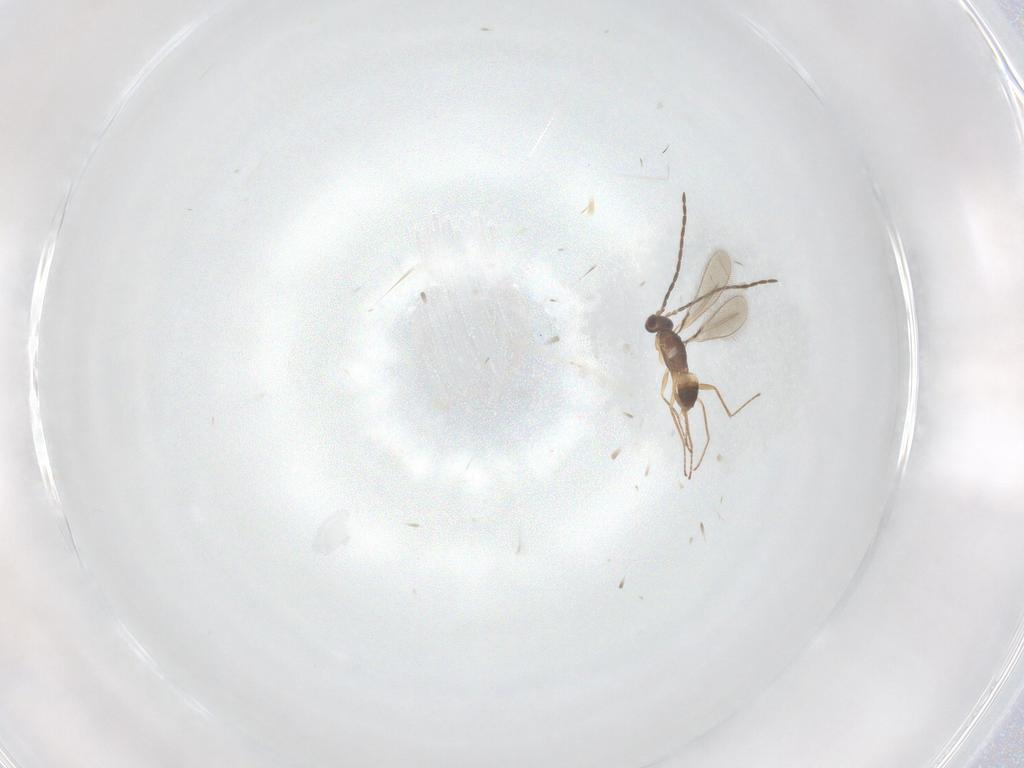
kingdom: Animalia
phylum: Arthropoda
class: Insecta
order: Hymenoptera
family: Mymaridae
